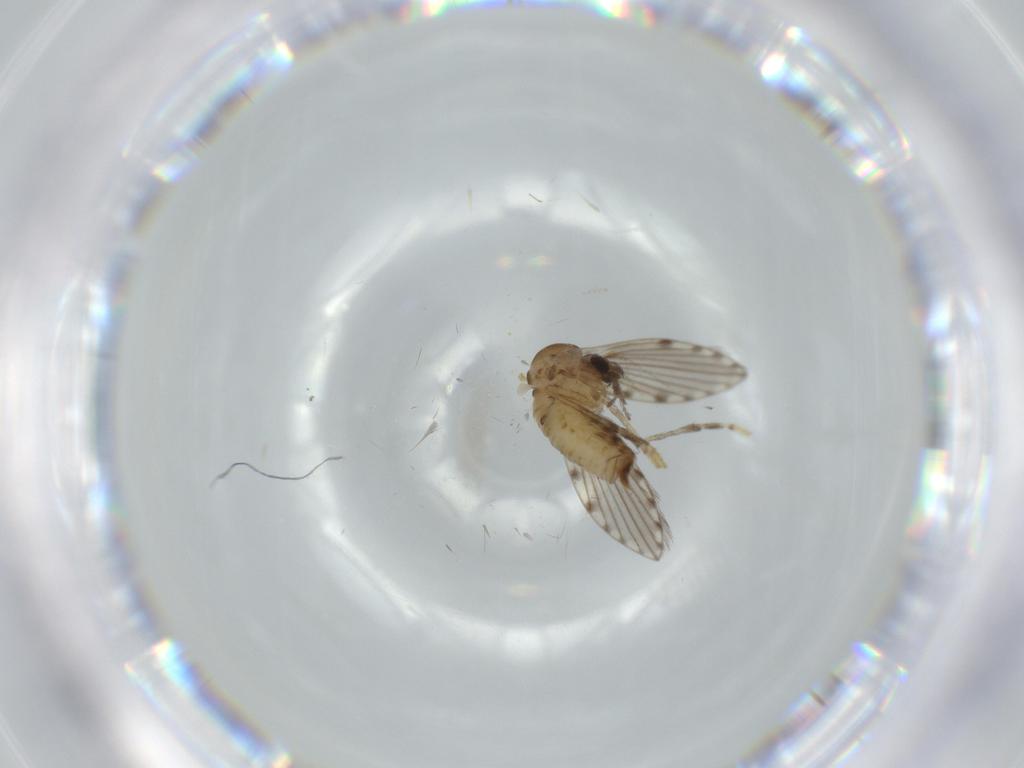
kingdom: Animalia
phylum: Arthropoda
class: Insecta
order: Diptera
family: Psychodidae
